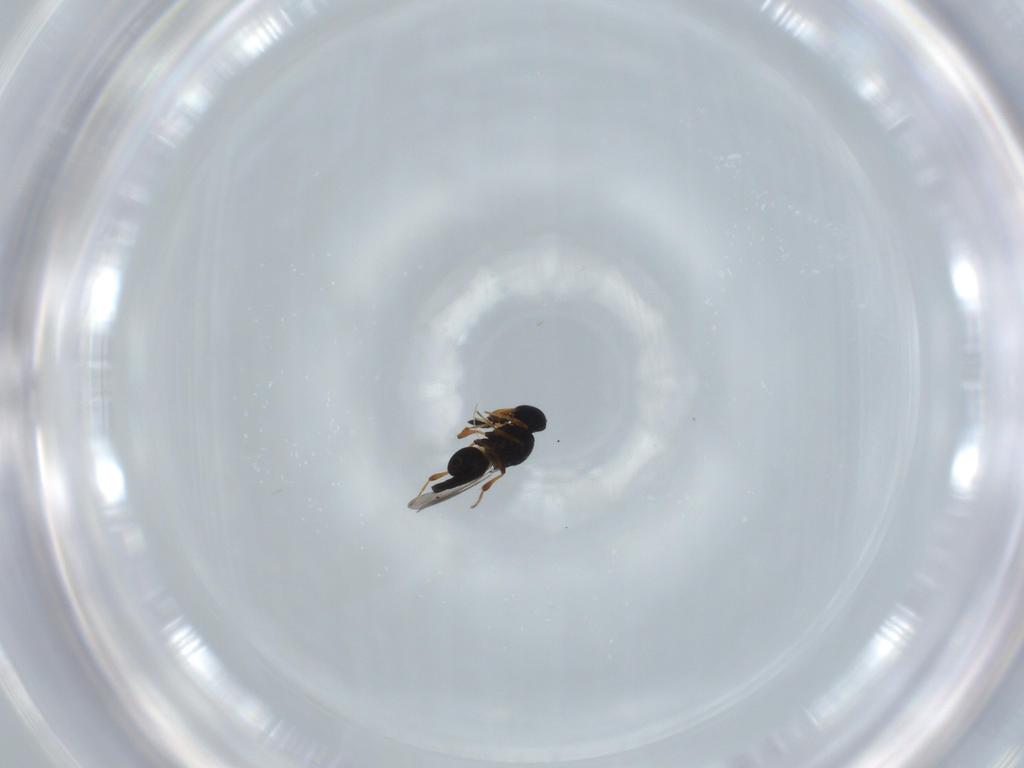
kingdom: Animalia
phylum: Arthropoda
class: Insecta
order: Hymenoptera
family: Platygastridae
